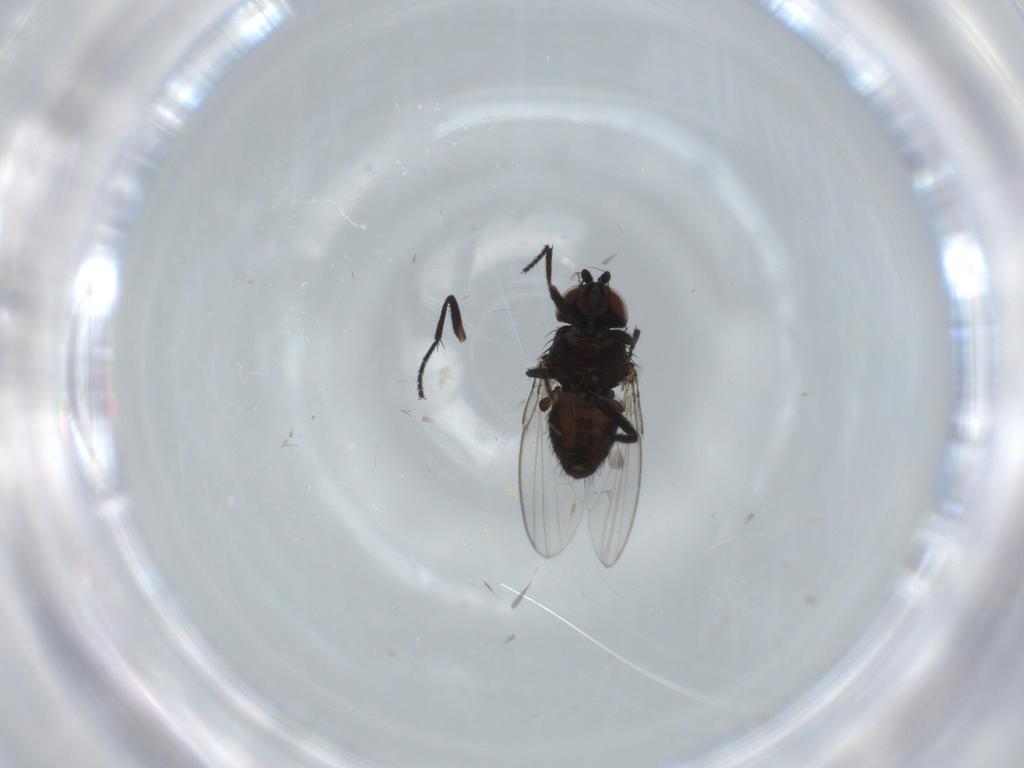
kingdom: Animalia
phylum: Arthropoda
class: Insecta
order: Diptera
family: Milichiidae
